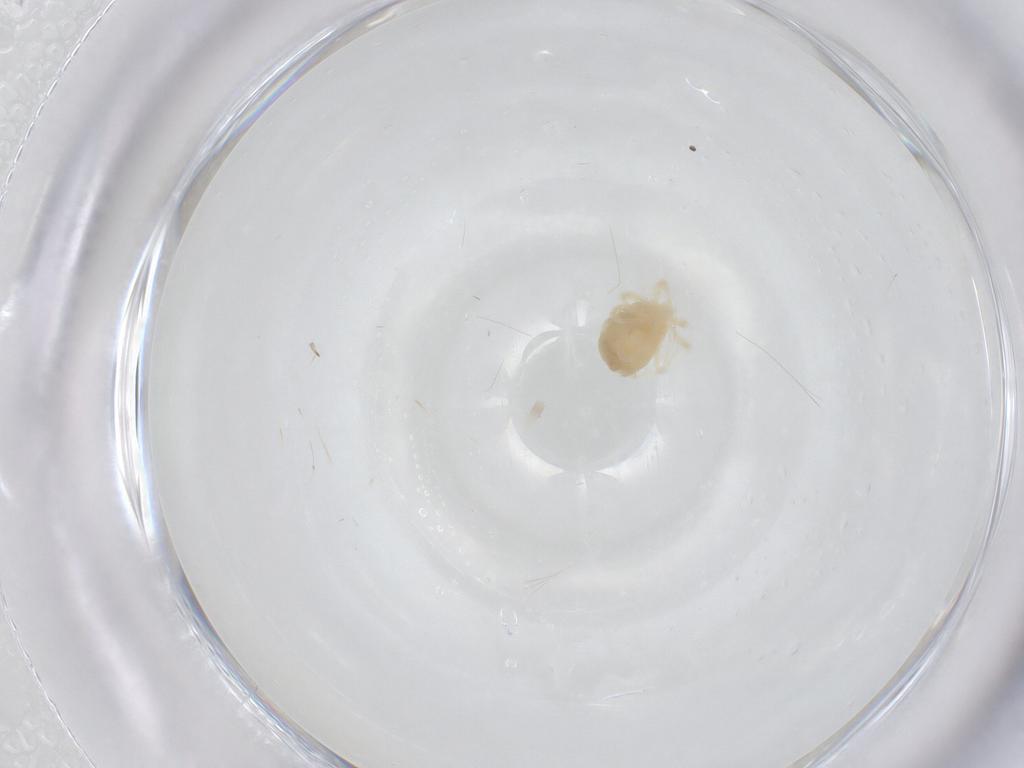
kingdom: Animalia
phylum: Arthropoda
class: Arachnida
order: Trombidiformes
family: Anystidae
